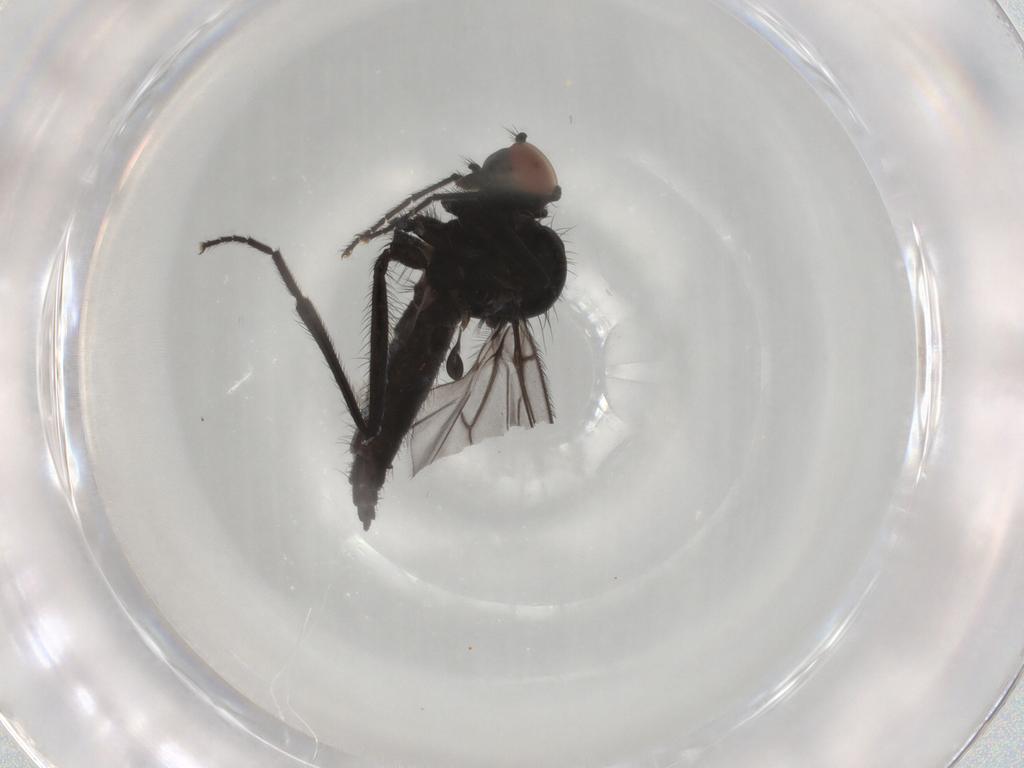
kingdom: Animalia
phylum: Arthropoda
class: Insecta
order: Diptera
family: Hybotidae
